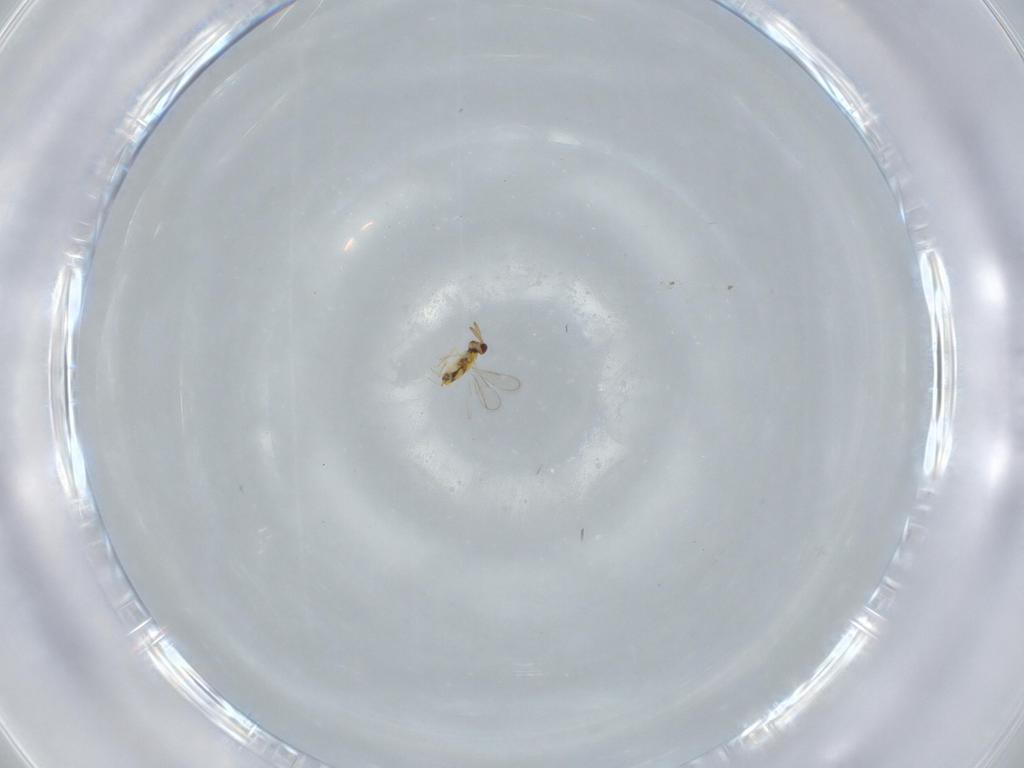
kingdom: Animalia
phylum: Arthropoda
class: Insecta
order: Hymenoptera
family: Aphelinidae
